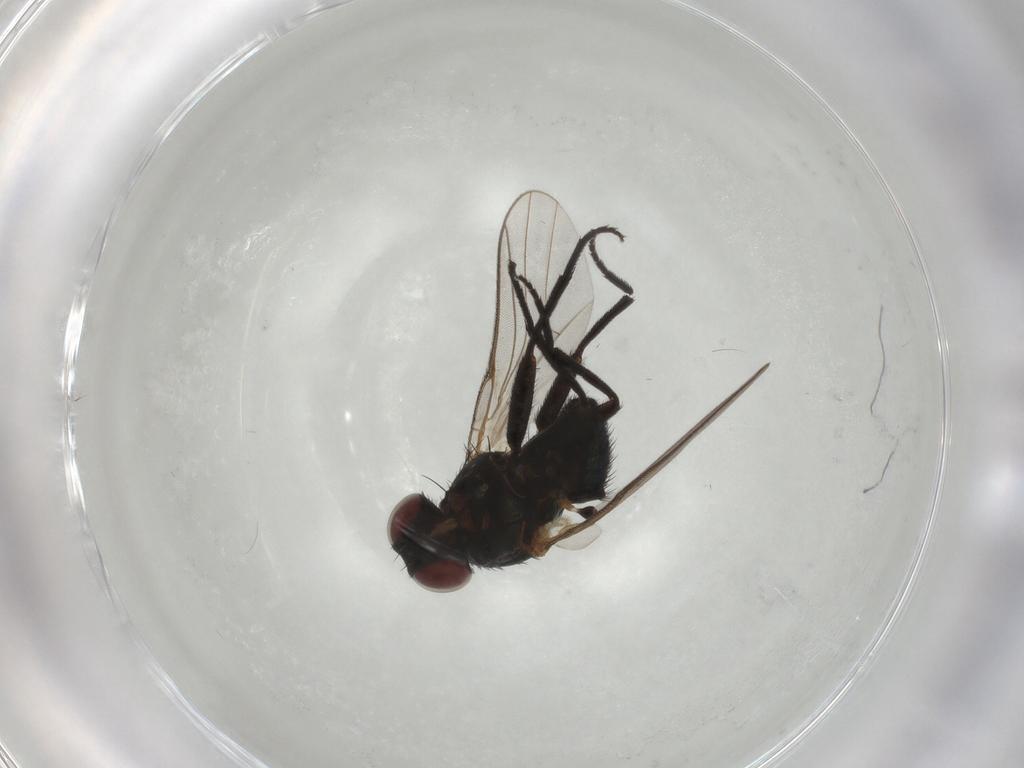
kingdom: Animalia
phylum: Arthropoda
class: Insecta
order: Diptera
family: Agromyzidae
